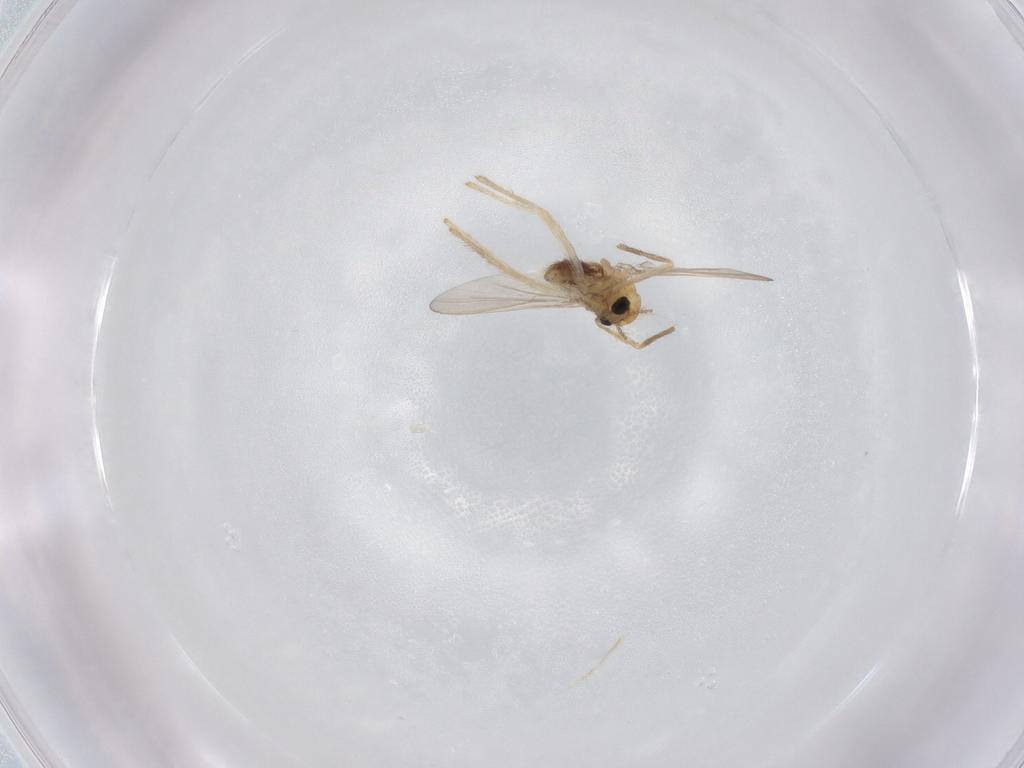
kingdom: Animalia
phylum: Arthropoda
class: Insecta
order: Diptera
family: Chironomidae
